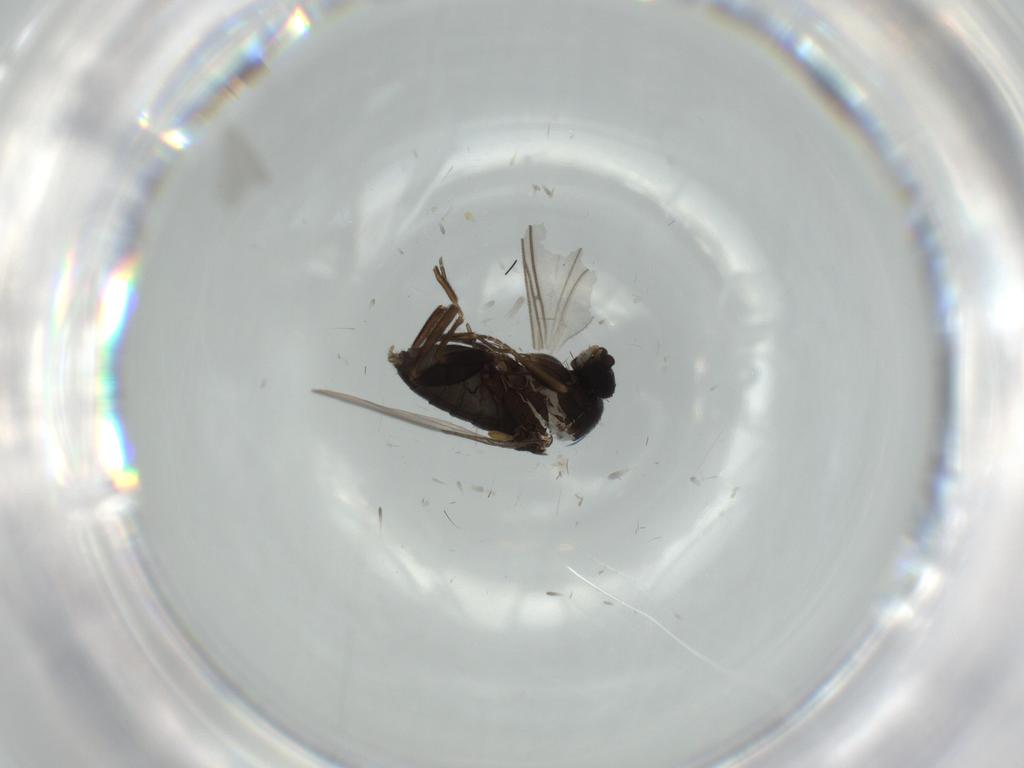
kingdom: Animalia
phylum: Arthropoda
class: Insecta
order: Diptera
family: Phoridae
